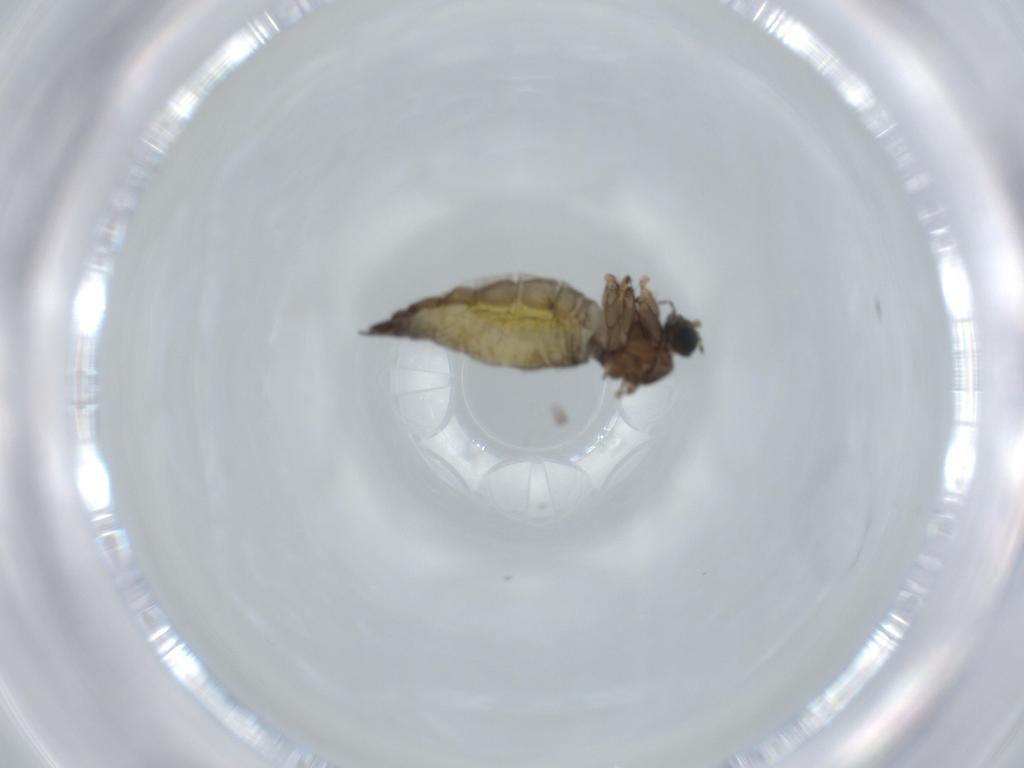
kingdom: Animalia
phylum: Arthropoda
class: Insecta
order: Diptera
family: Sciaridae
